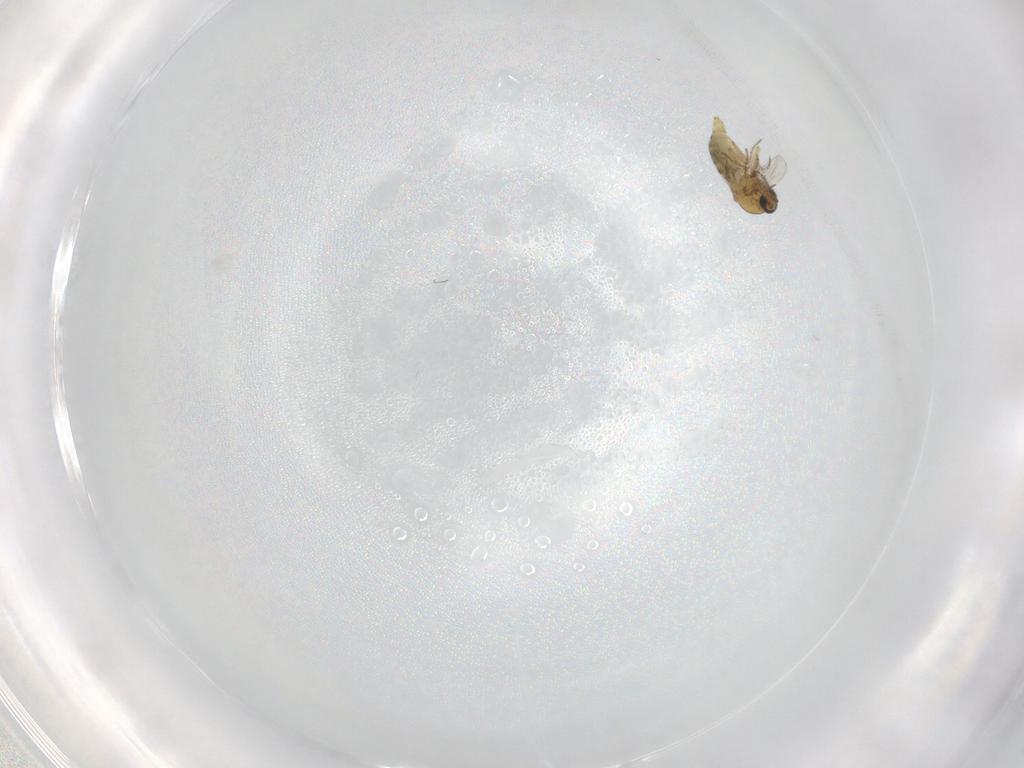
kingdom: Animalia
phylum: Arthropoda
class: Insecta
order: Diptera
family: Ceratopogonidae
